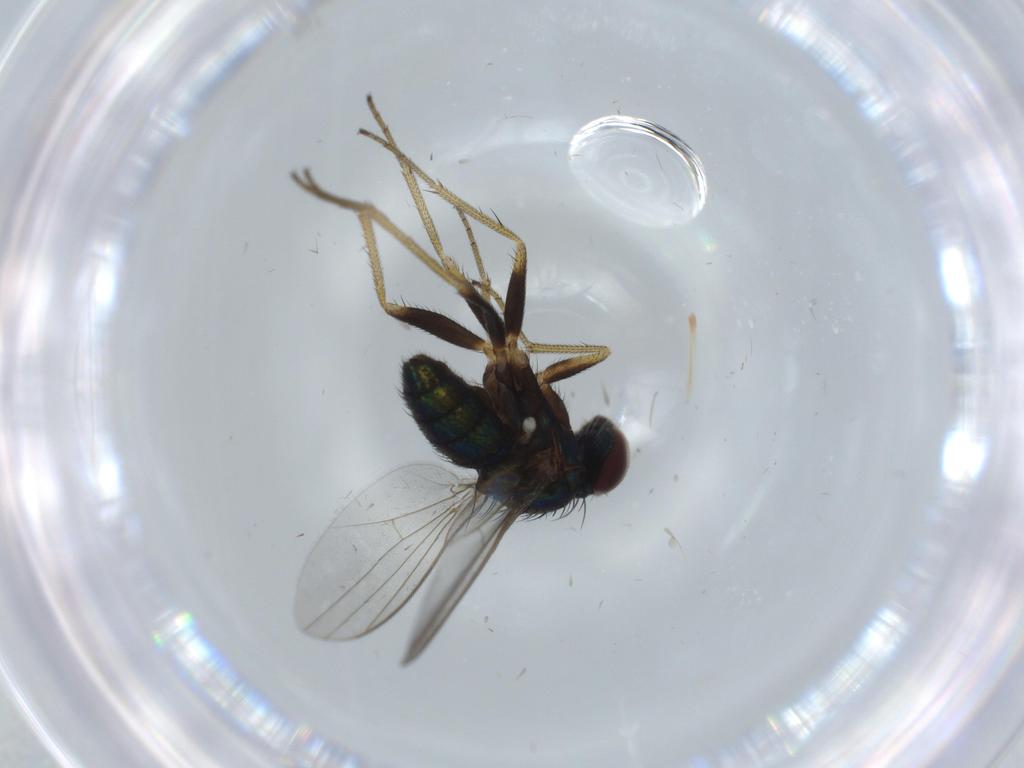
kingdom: Animalia
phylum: Arthropoda
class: Insecta
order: Diptera
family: Dolichopodidae
